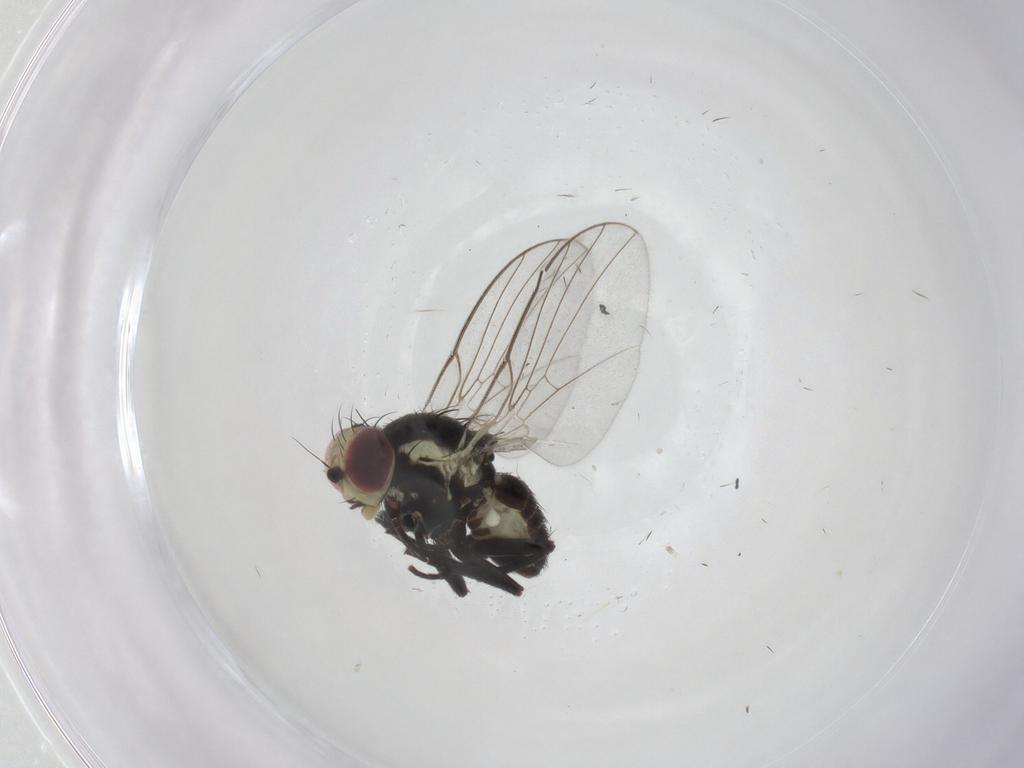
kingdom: Animalia
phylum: Arthropoda
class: Insecta
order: Diptera
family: Agromyzidae
